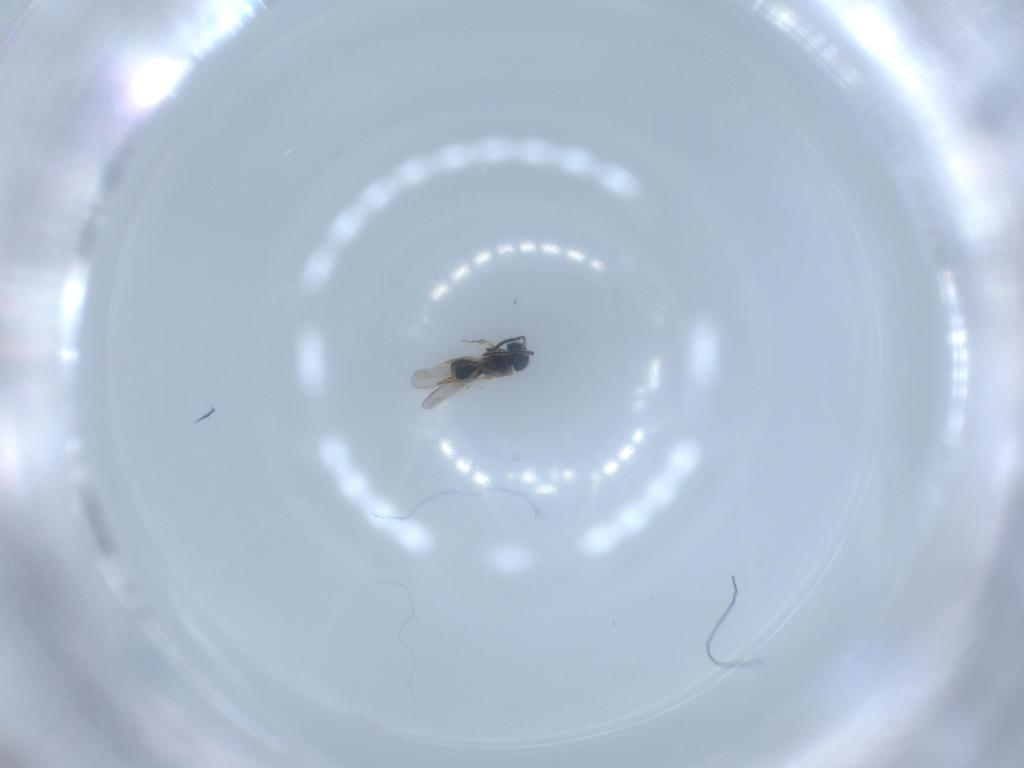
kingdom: Animalia
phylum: Arthropoda
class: Insecta
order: Hymenoptera
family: Scelionidae
